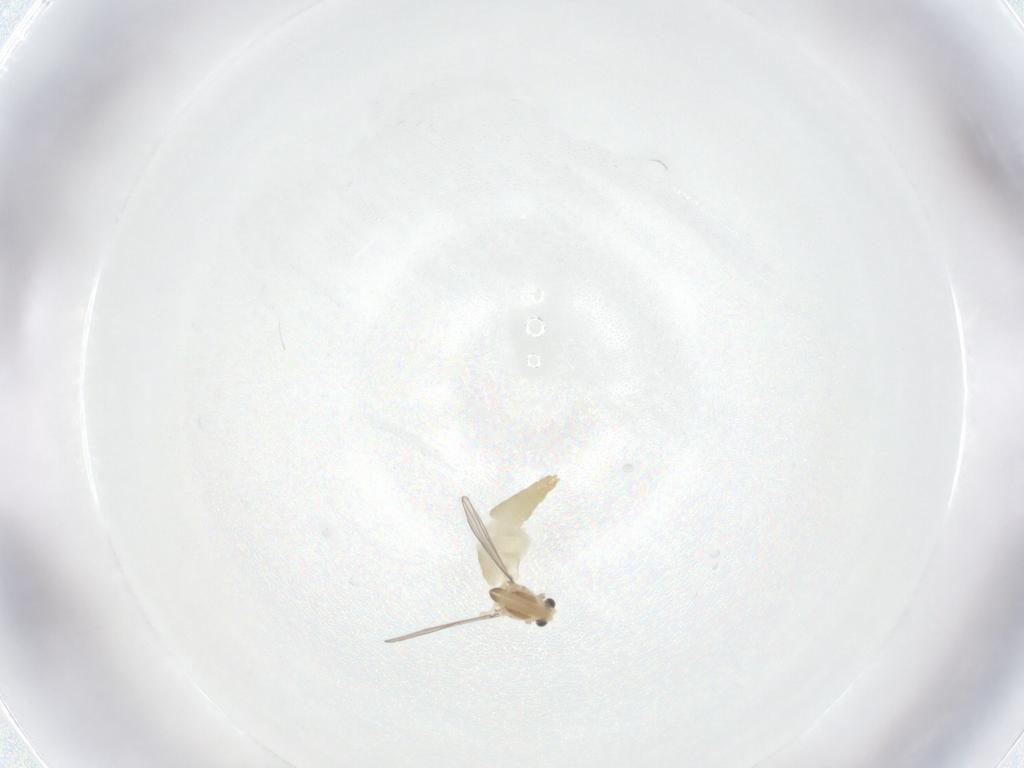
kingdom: Animalia
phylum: Arthropoda
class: Insecta
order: Diptera
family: Chironomidae
